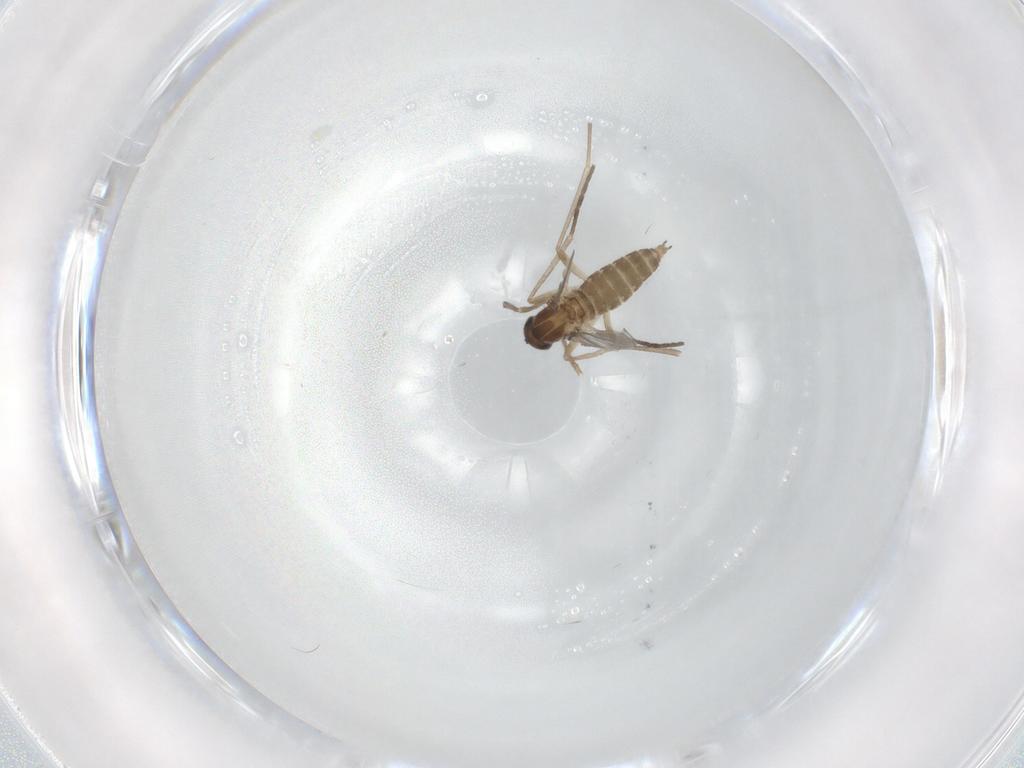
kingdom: Animalia
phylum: Arthropoda
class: Insecta
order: Diptera
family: Cecidomyiidae
